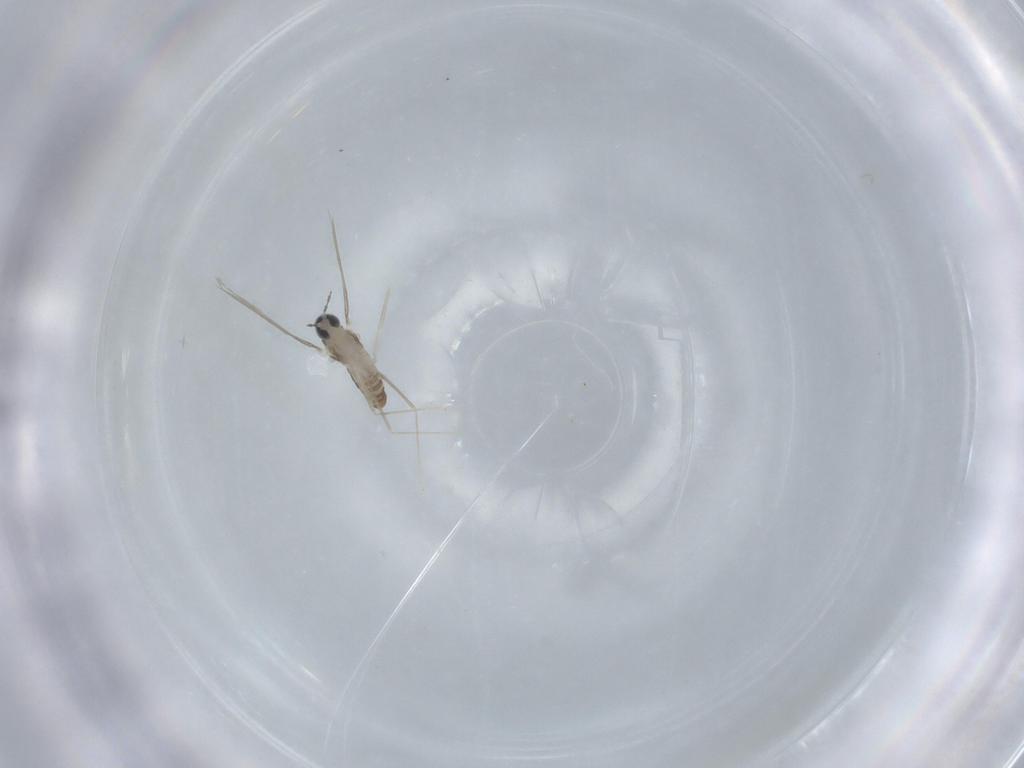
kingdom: Animalia
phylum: Arthropoda
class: Insecta
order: Diptera
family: Cecidomyiidae
